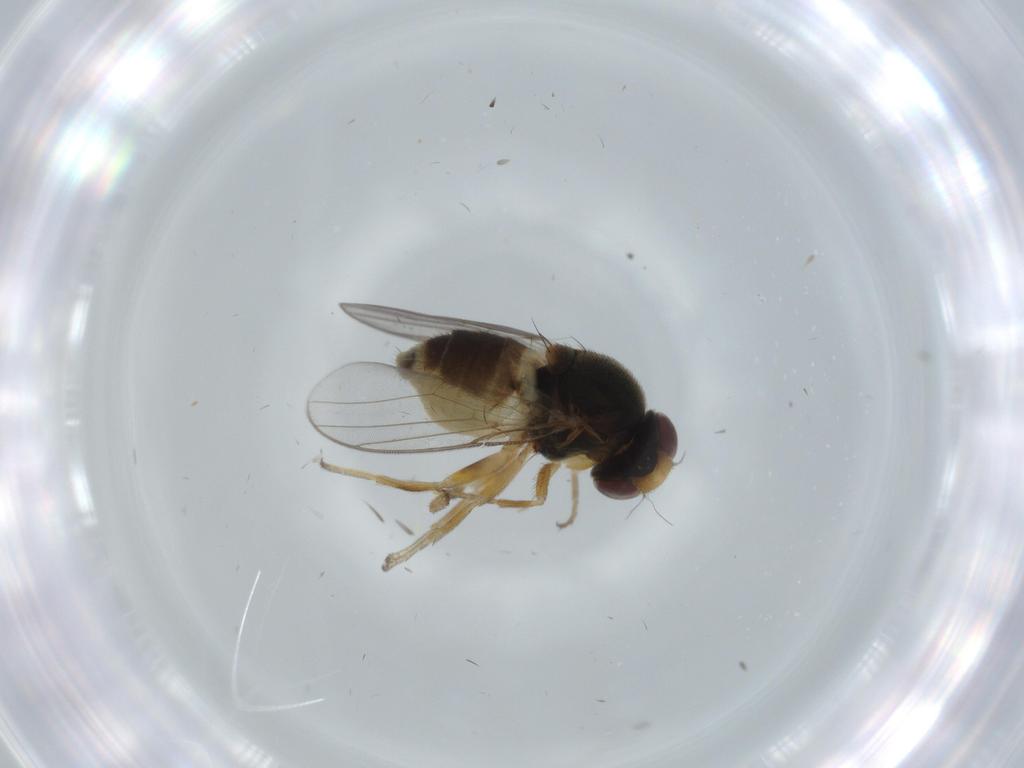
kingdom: Animalia
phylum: Arthropoda
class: Insecta
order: Diptera
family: Chloropidae
